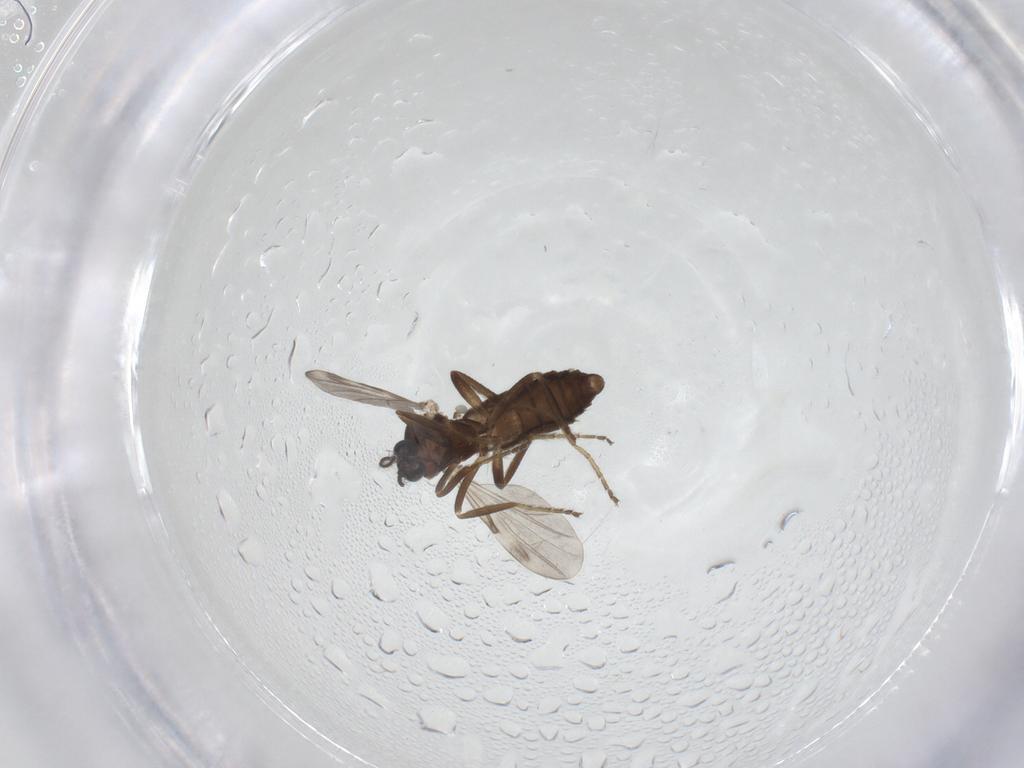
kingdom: Animalia
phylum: Arthropoda
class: Insecta
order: Diptera
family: Ceratopogonidae
